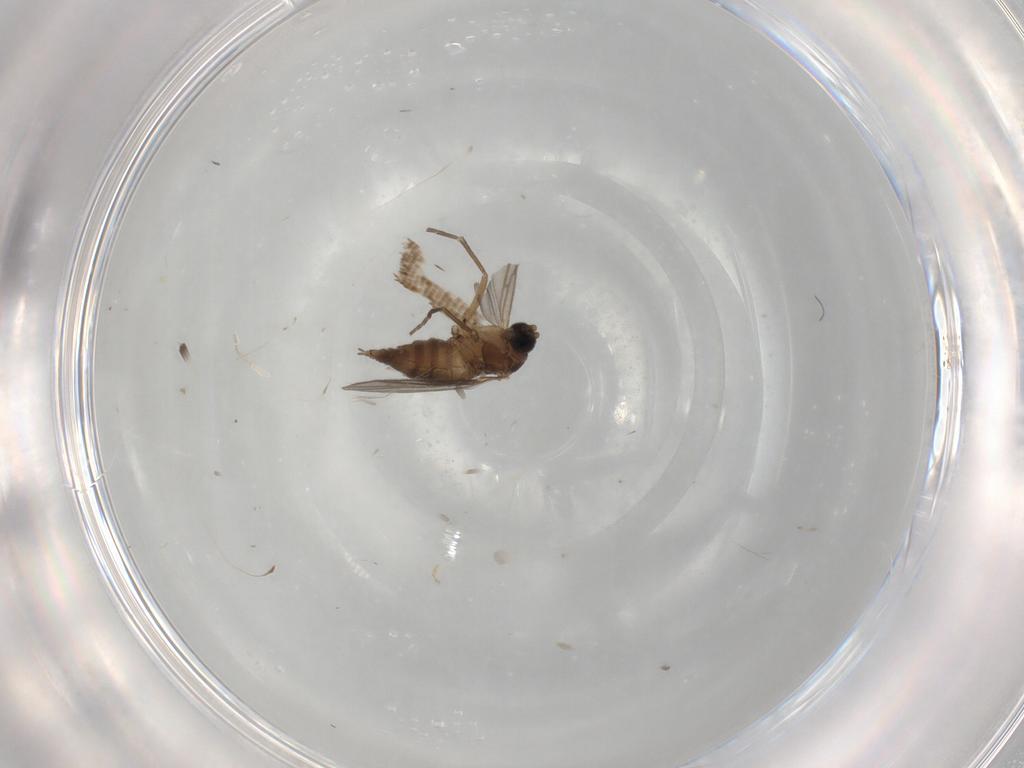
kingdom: Animalia
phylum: Arthropoda
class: Insecta
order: Diptera
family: Sciaridae
